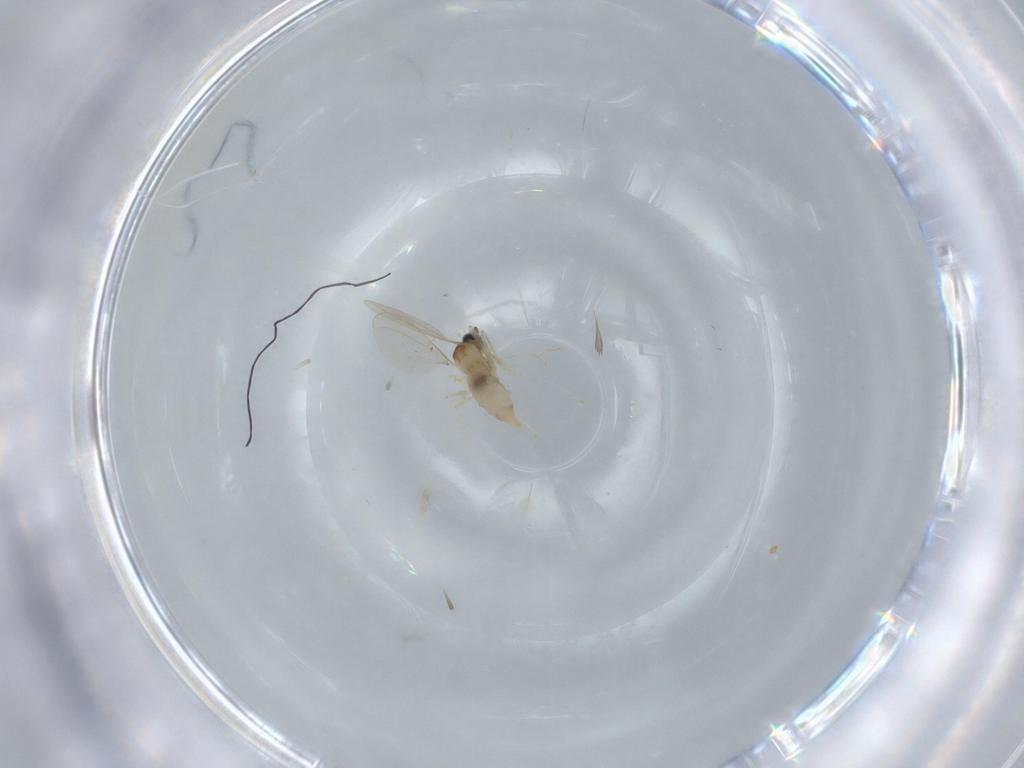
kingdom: Animalia
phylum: Arthropoda
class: Insecta
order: Diptera
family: Cecidomyiidae
